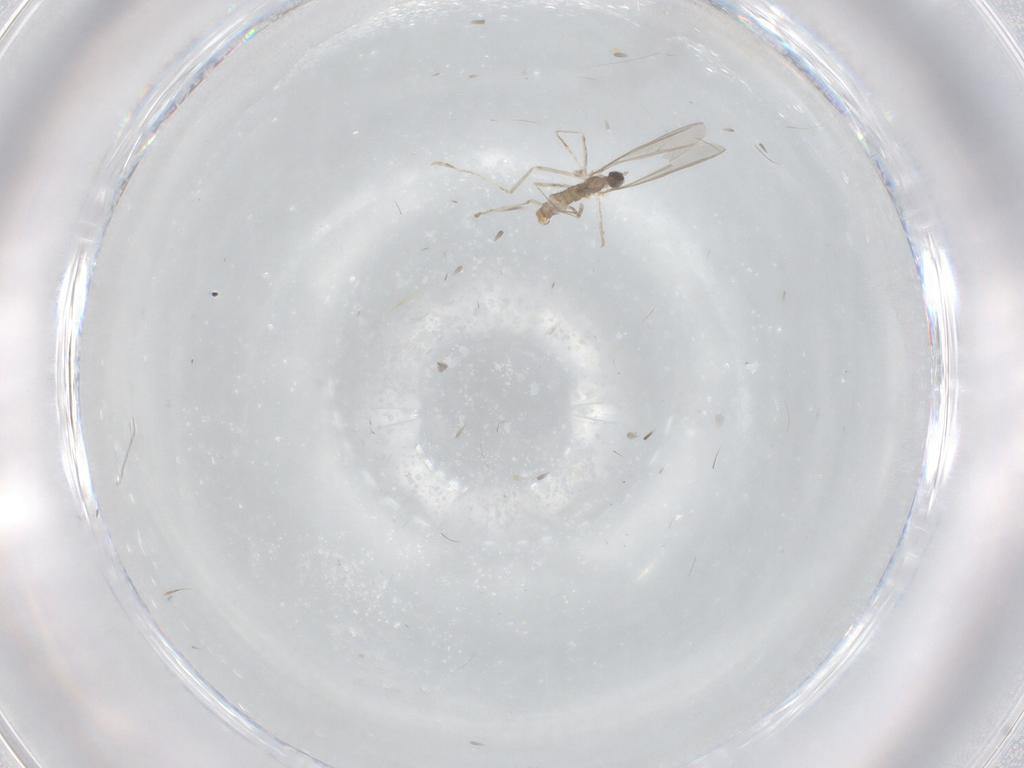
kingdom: Animalia
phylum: Arthropoda
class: Insecta
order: Diptera
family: Cecidomyiidae
